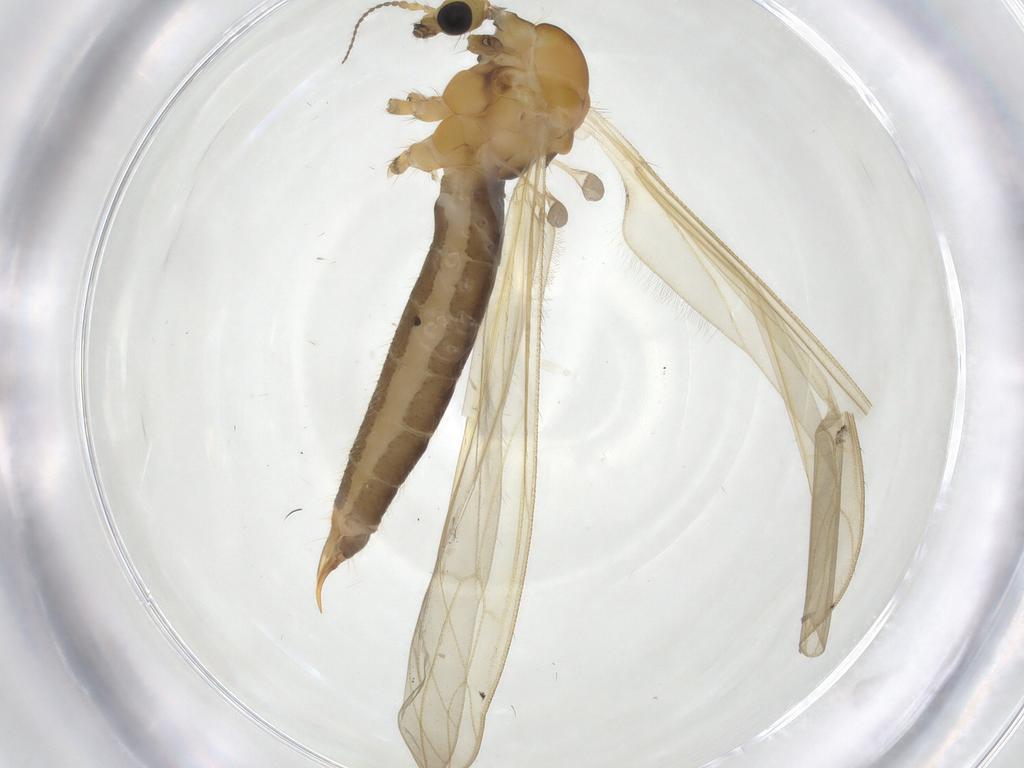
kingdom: Animalia
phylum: Arthropoda
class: Insecta
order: Diptera
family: Limoniidae
